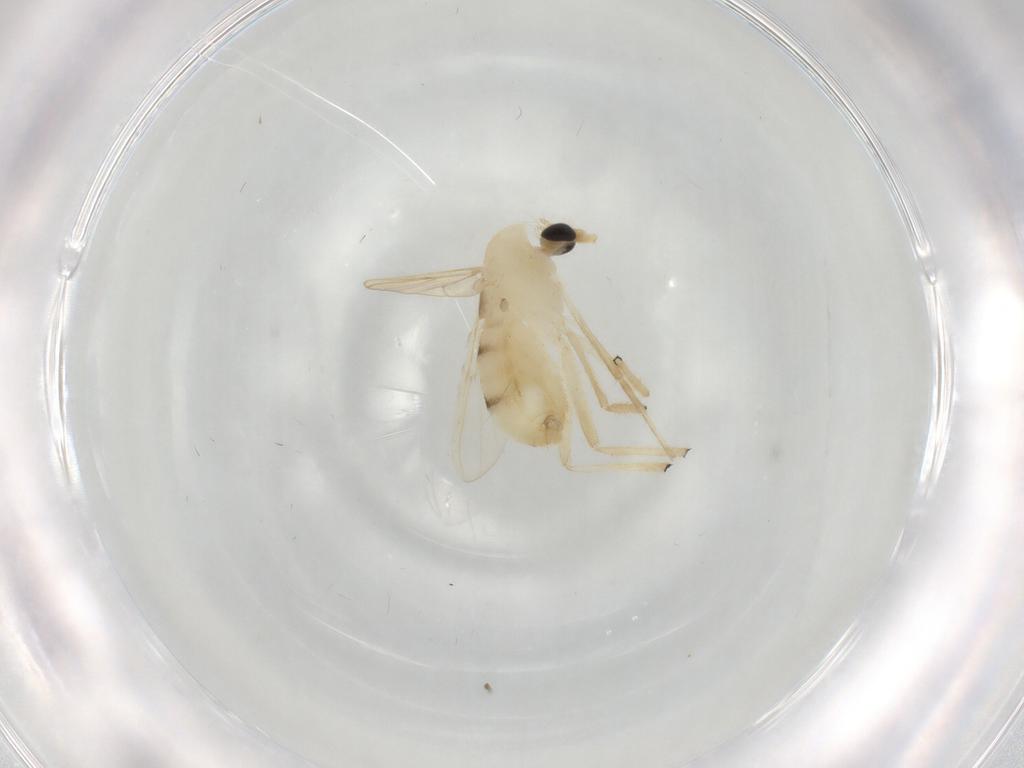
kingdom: Animalia
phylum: Arthropoda
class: Insecta
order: Diptera
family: Chironomidae
